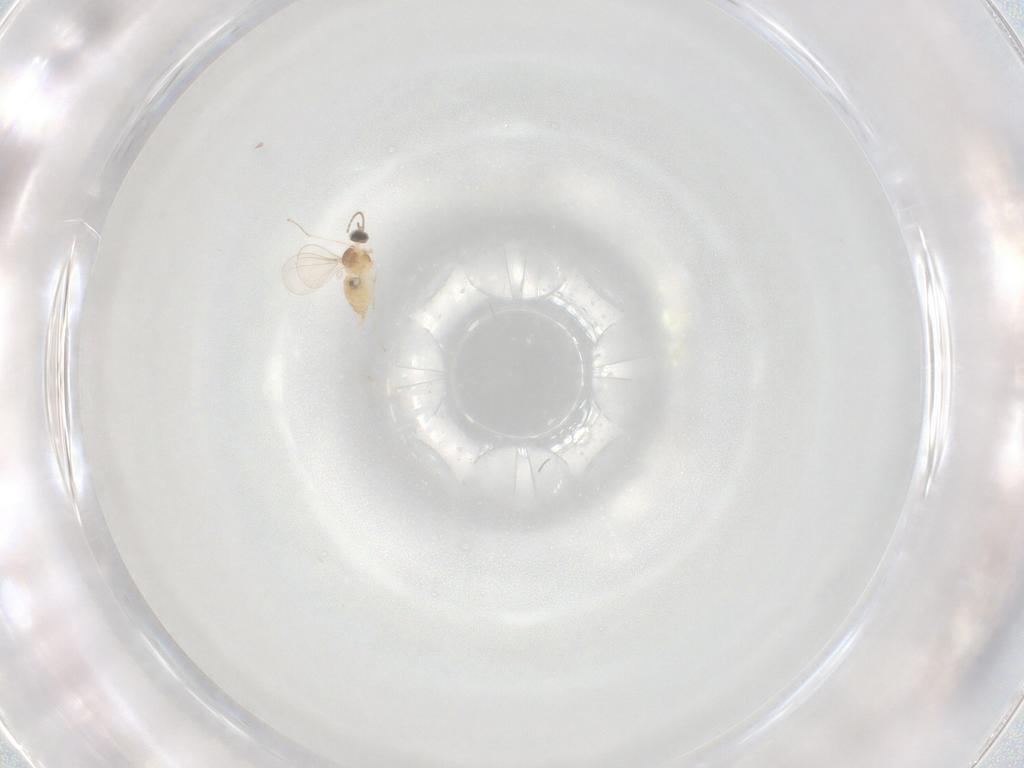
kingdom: Animalia
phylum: Arthropoda
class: Insecta
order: Diptera
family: Cecidomyiidae
